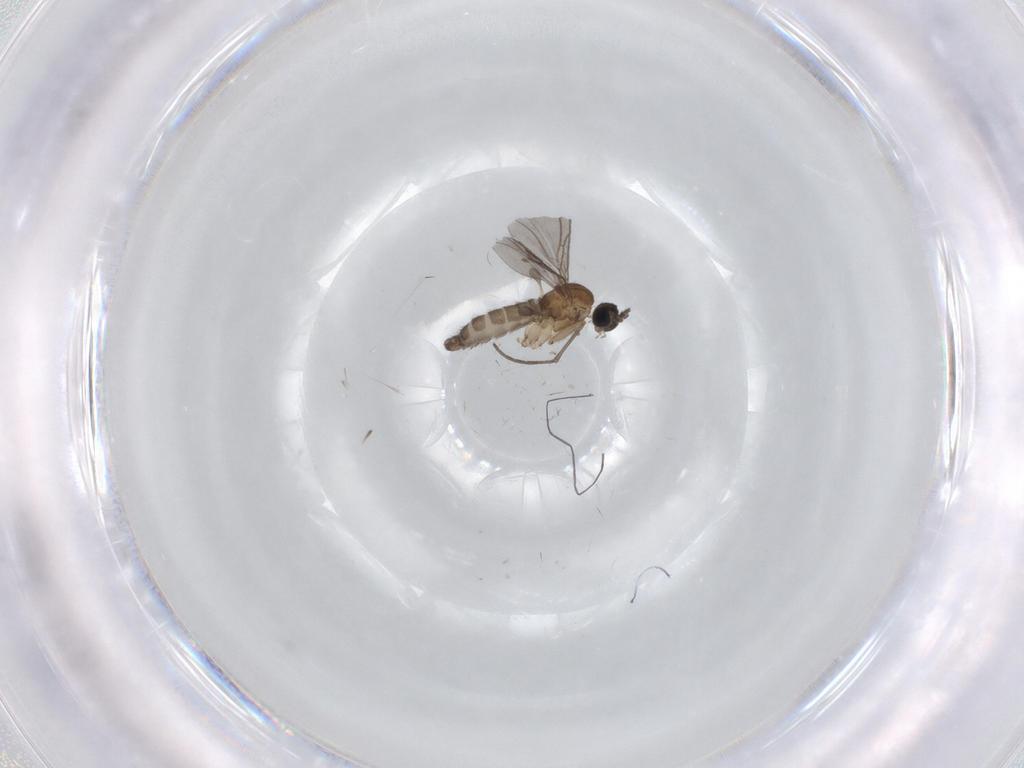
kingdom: Animalia
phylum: Arthropoda
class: Insecta
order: Diptera
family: Sciaridae
